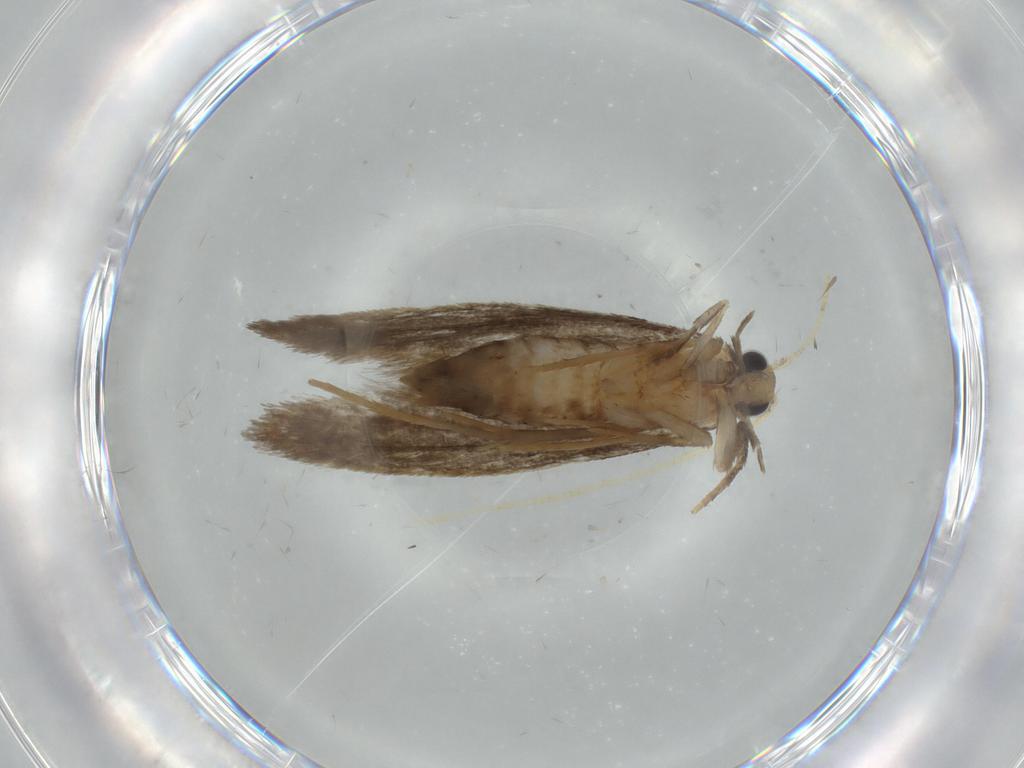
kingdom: Animalia
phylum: Arthropoda
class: Insecta
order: Lepidoptera
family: Tineidae
